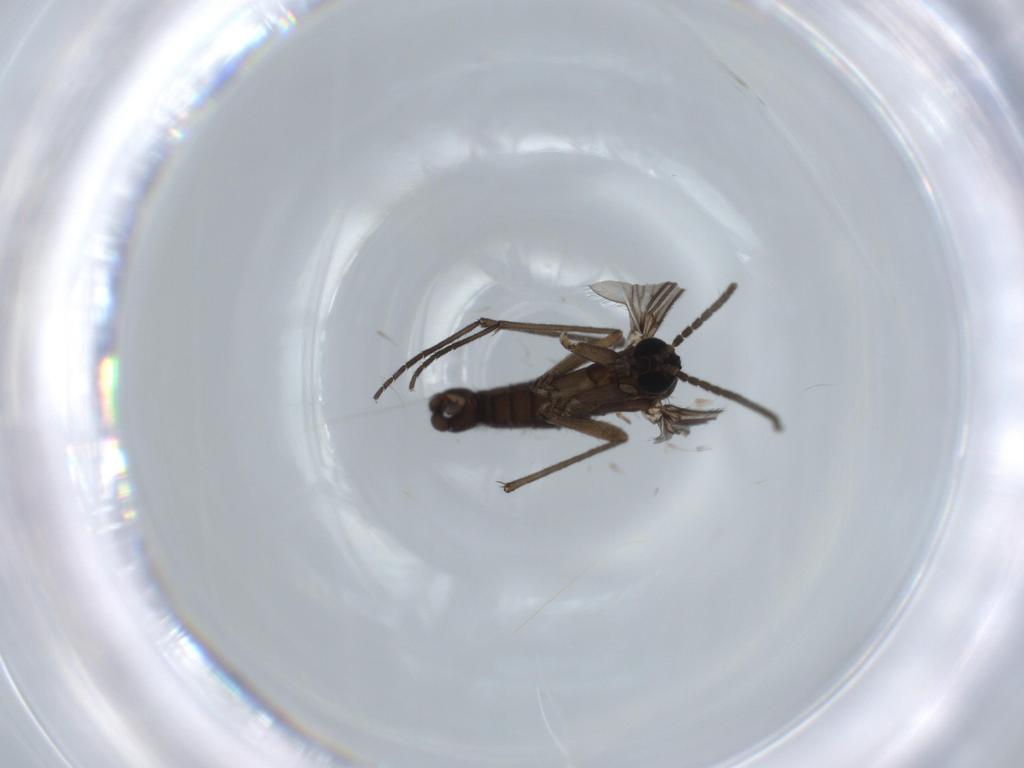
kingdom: Animalia
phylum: Arthropoda
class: Insecta
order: Diptera
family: Sciaridae
